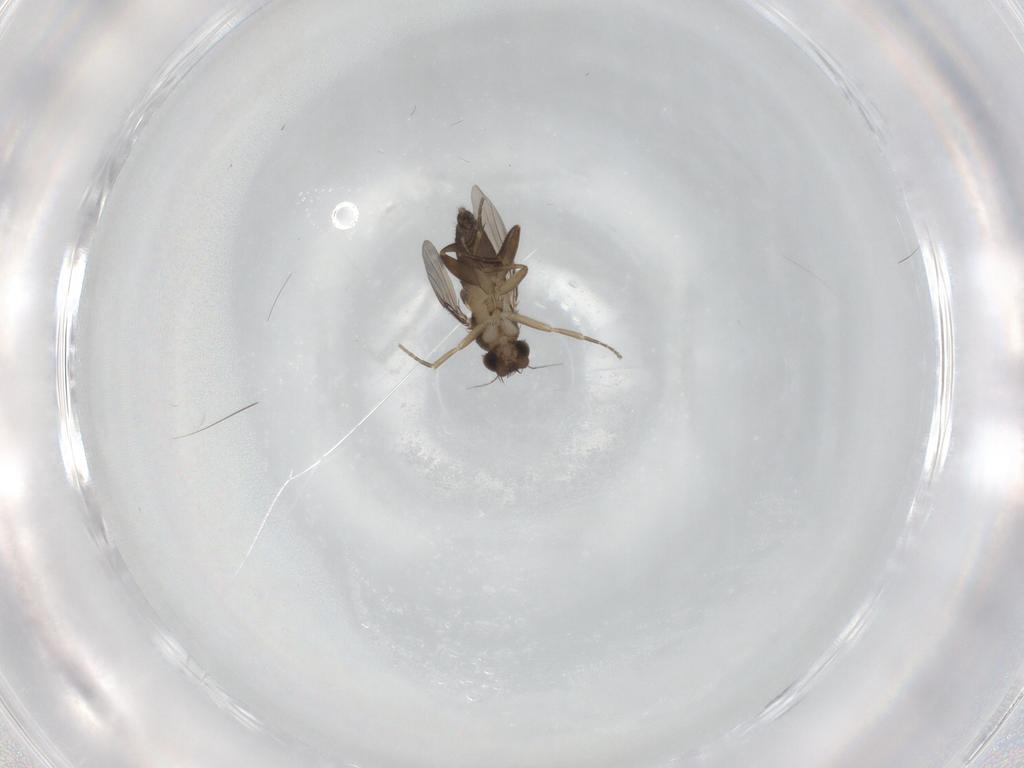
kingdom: Animalia
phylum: Arthropoda
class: Insecta
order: Diptera
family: Phoridae
